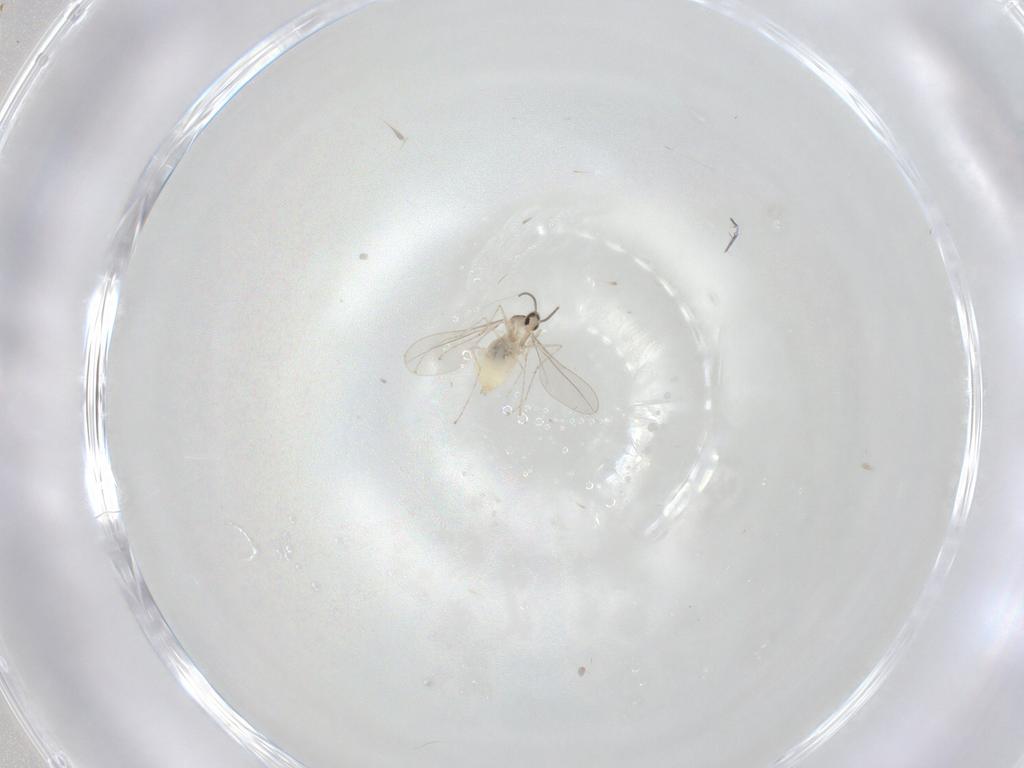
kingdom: Animalia
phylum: Arthropoda
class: Insecta
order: Diptera
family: Cecidomyiidae
